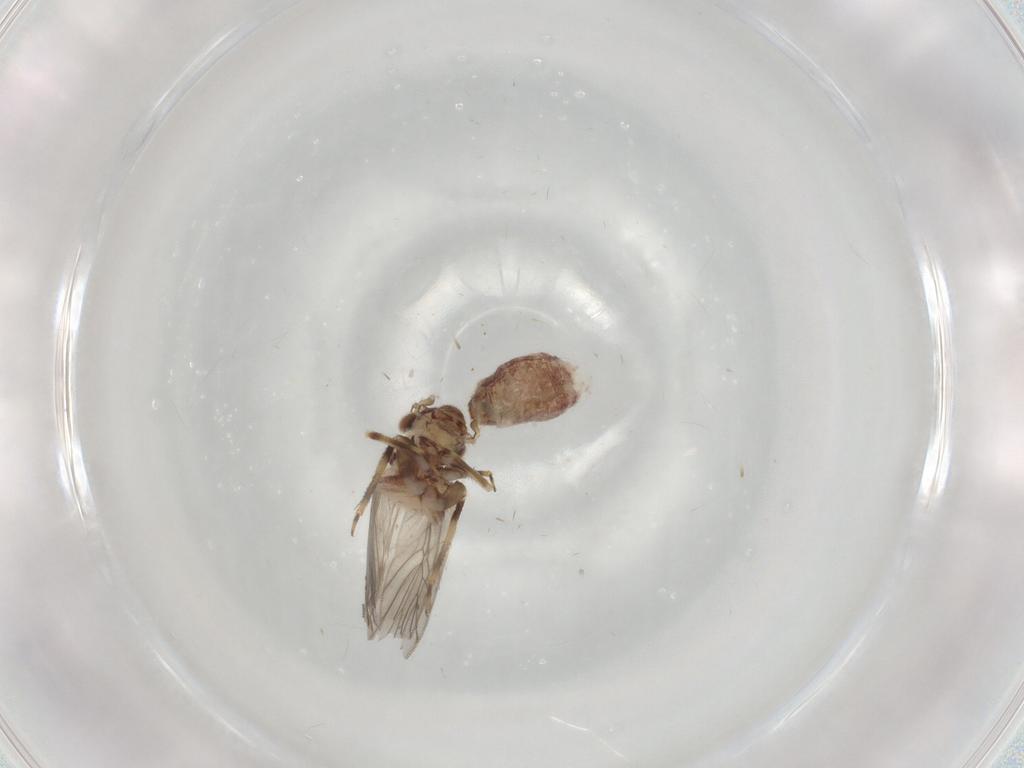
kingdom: Animalia
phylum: Arthropoda
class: Insecta
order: Psocodea
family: Lepidopsocidae
